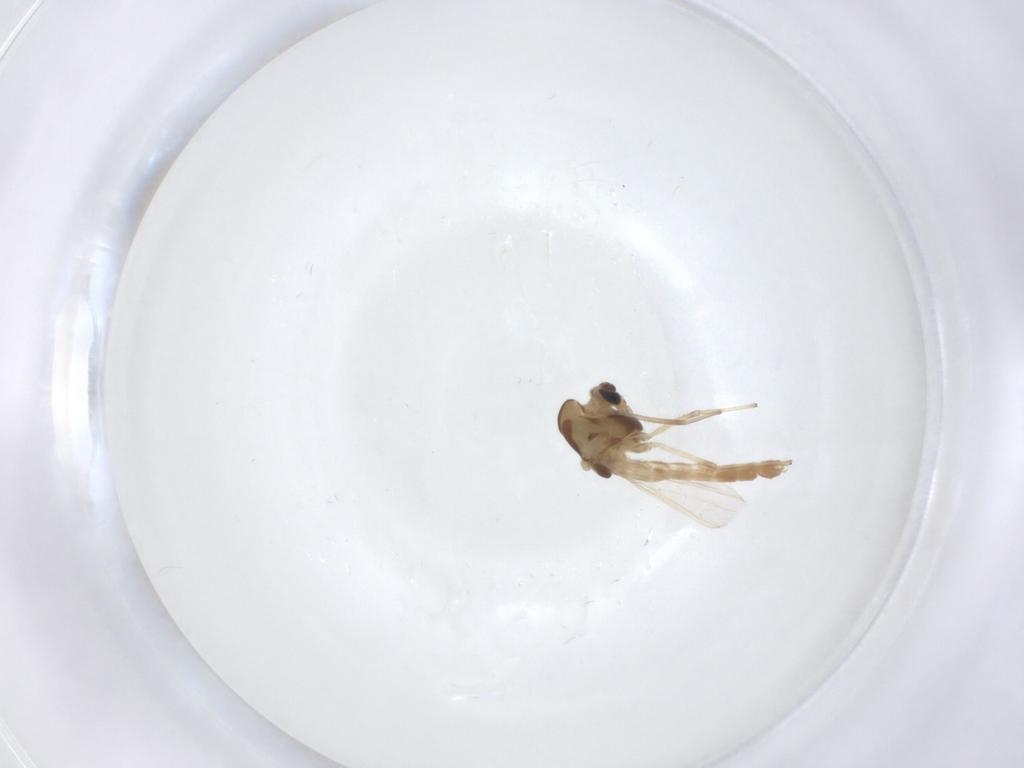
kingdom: Animalia
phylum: Arthropoda
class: Insecta
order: Diptera
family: Chironomidae
